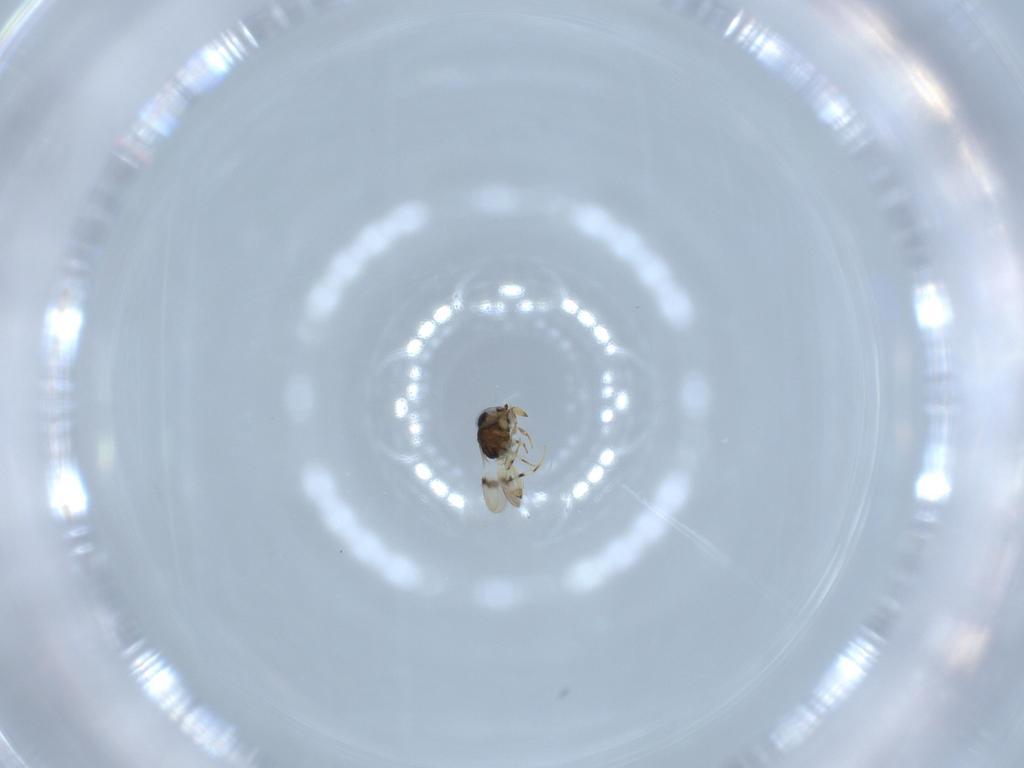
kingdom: Animalia
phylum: Arthropoda
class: Insecta
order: Hymenoptera
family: Scelionidae
